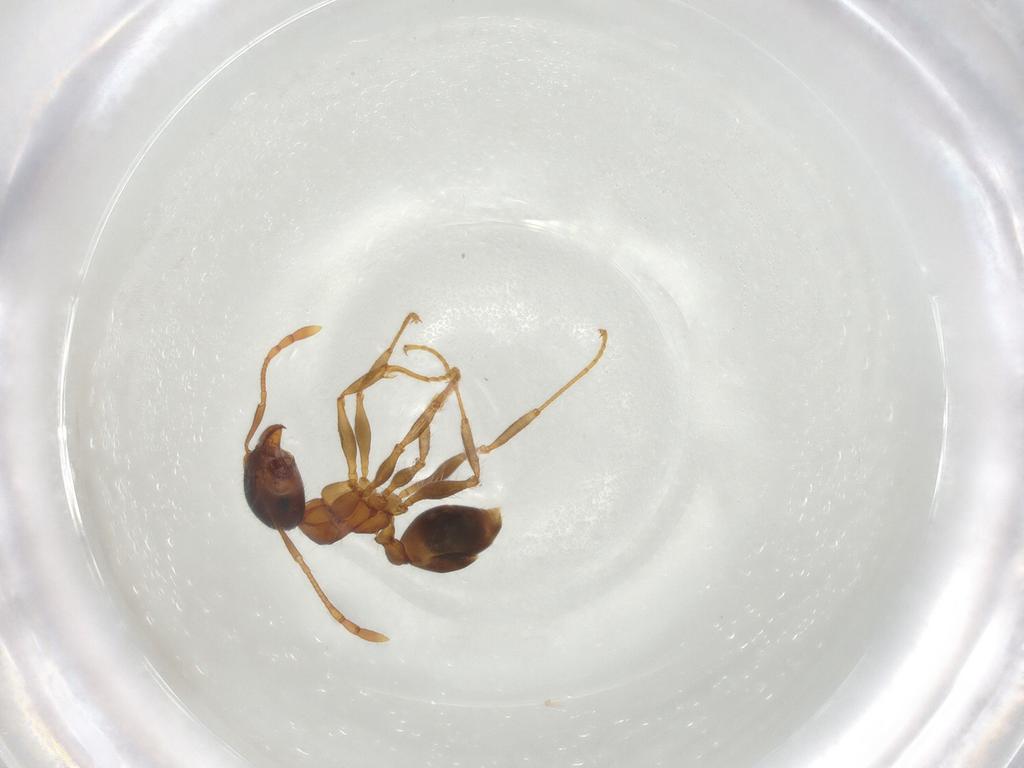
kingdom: Animalia
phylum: Arthropoda
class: Insecta
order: Hymenoptera
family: Formicidae
